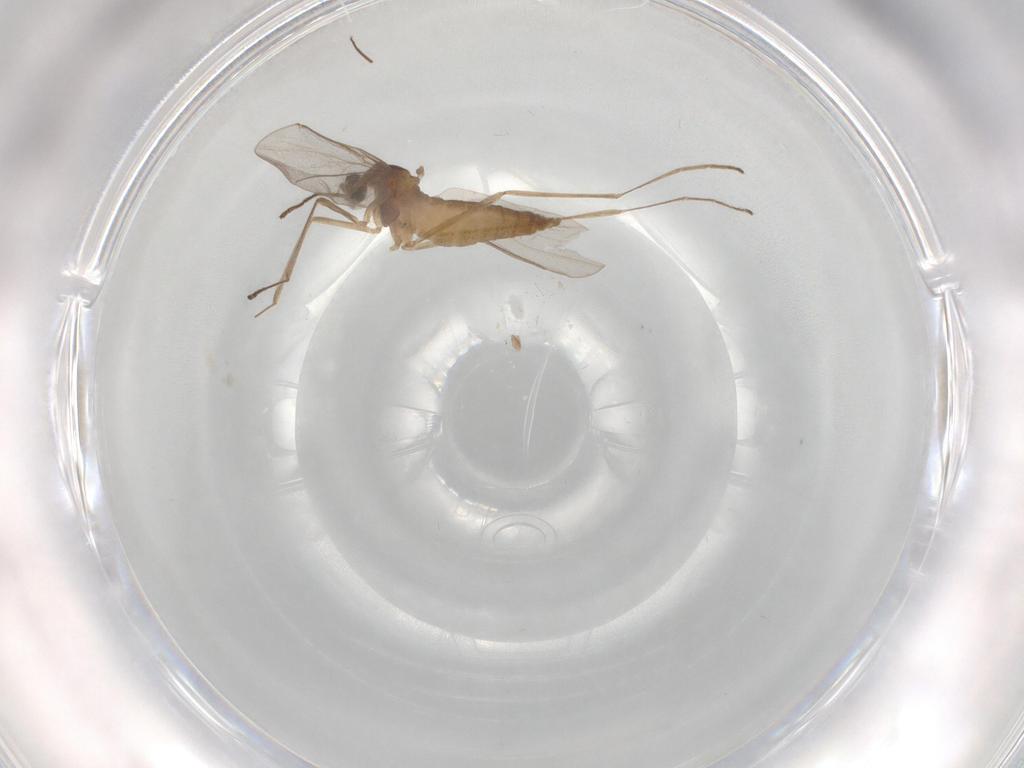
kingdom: Animalia
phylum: Arthropoda
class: Insecta
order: Diptera
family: Cecidomyiidae
